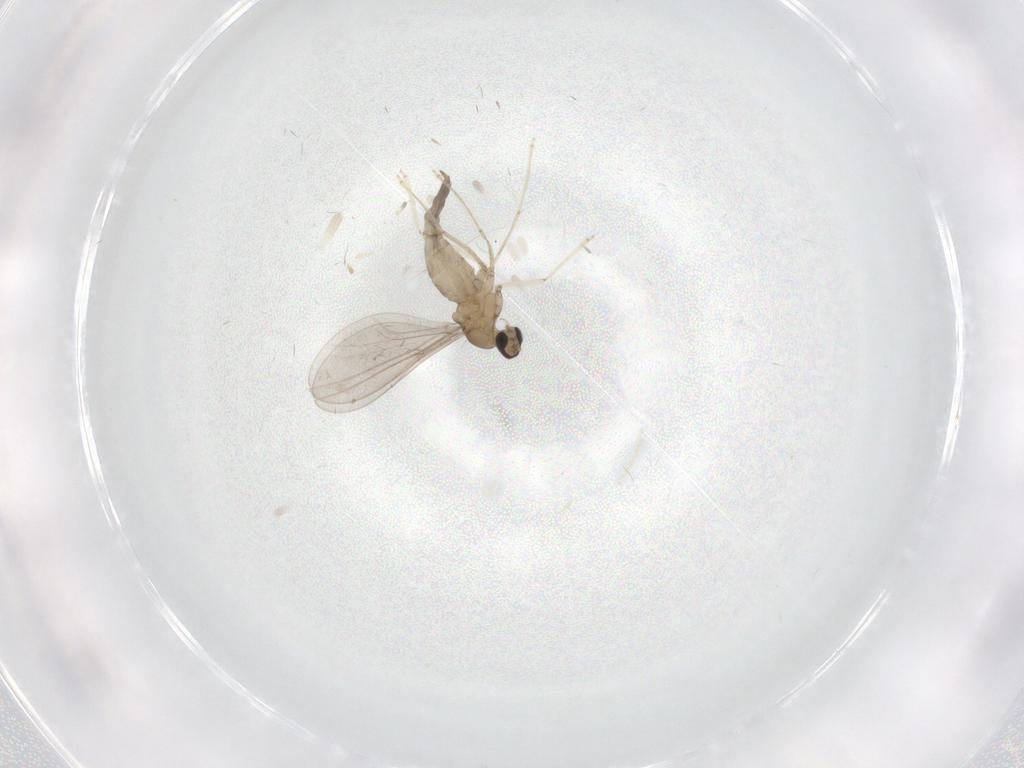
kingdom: Animalia
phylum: Arthropoda
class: Insecta
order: Diptera
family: Cecidomyiidae
